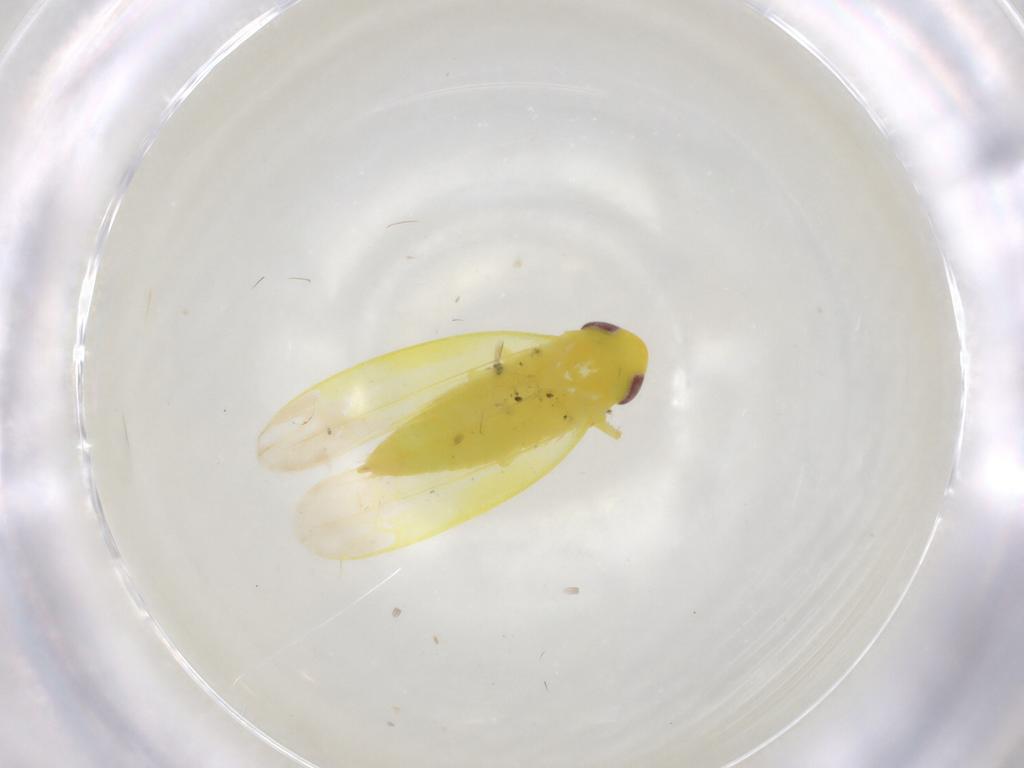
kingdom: Animalia
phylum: Arthropoda
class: Insecta
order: Hemiptera
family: Cicadellidae
